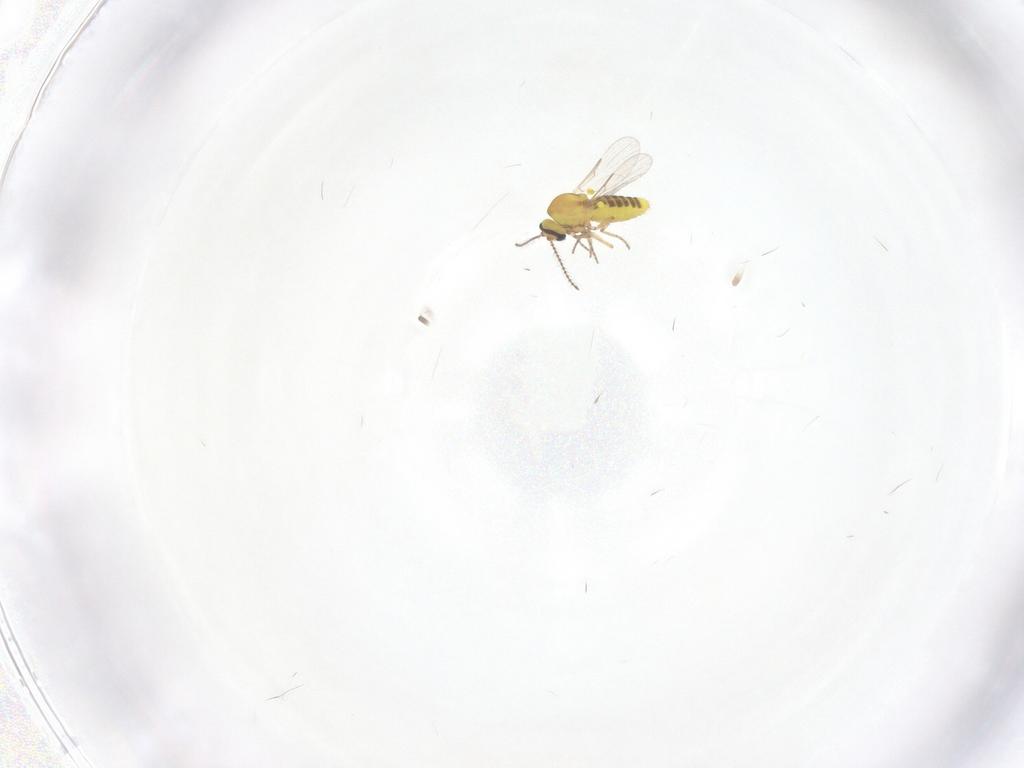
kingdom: Animalia
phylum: Arthropoda
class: Insecta
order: Diptera
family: Ceratopogonidae
